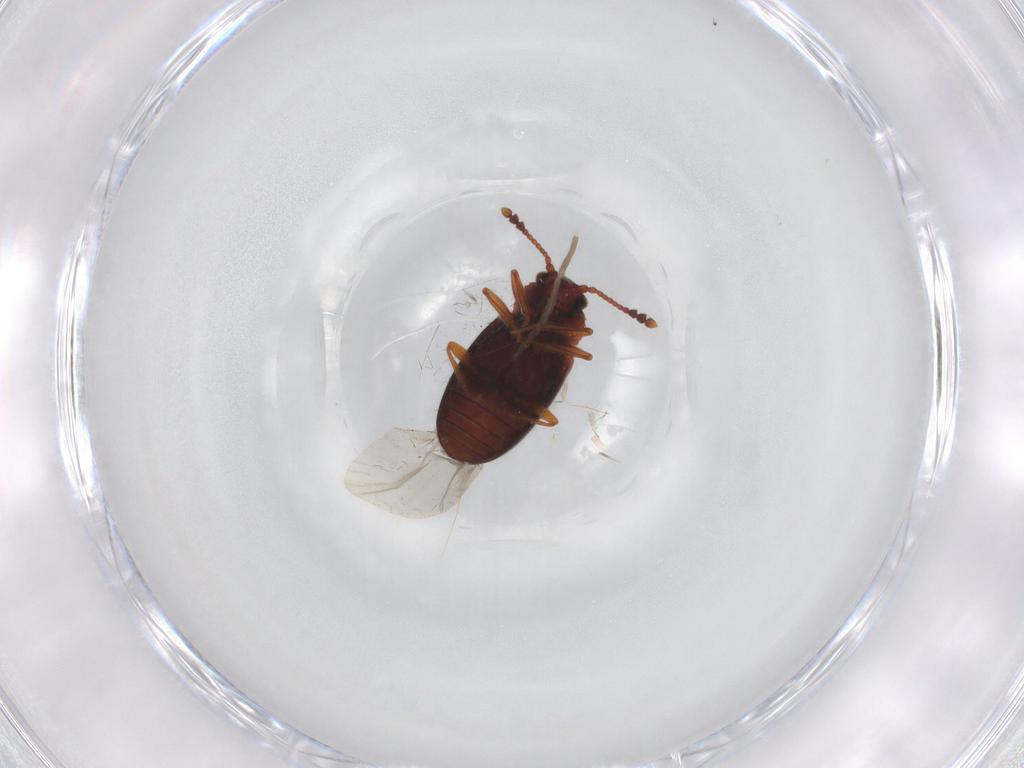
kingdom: Animalia
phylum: Arthropoda
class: Insecta
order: Coleoptera
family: Cryptophagidae
